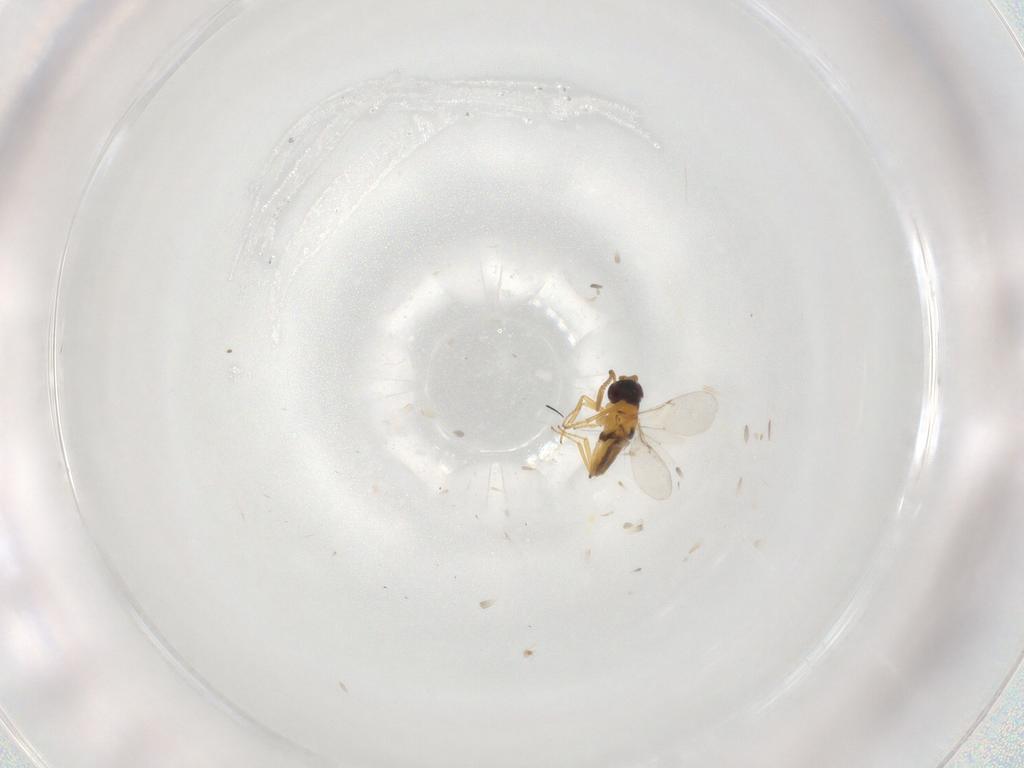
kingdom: Animalia
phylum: Arthropoda
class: Insecta
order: Hymenoptera
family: Encyrtidae
